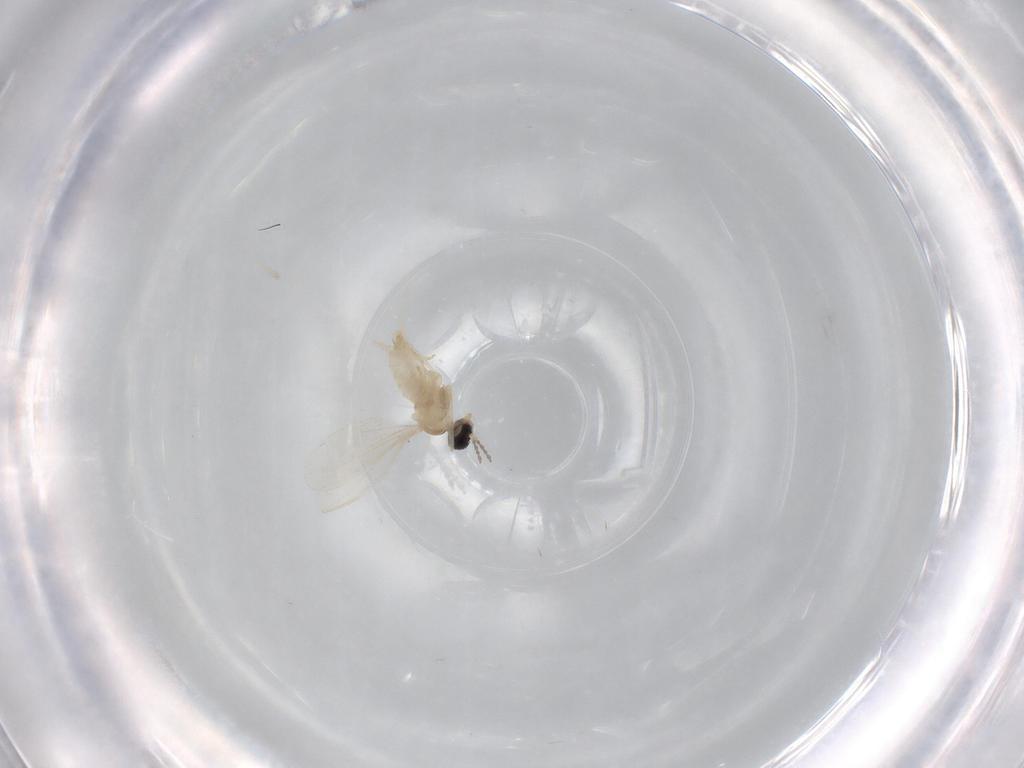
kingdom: Animalia
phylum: Arthropoda
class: Insecta
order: Diptera
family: Cecidomyiidae
